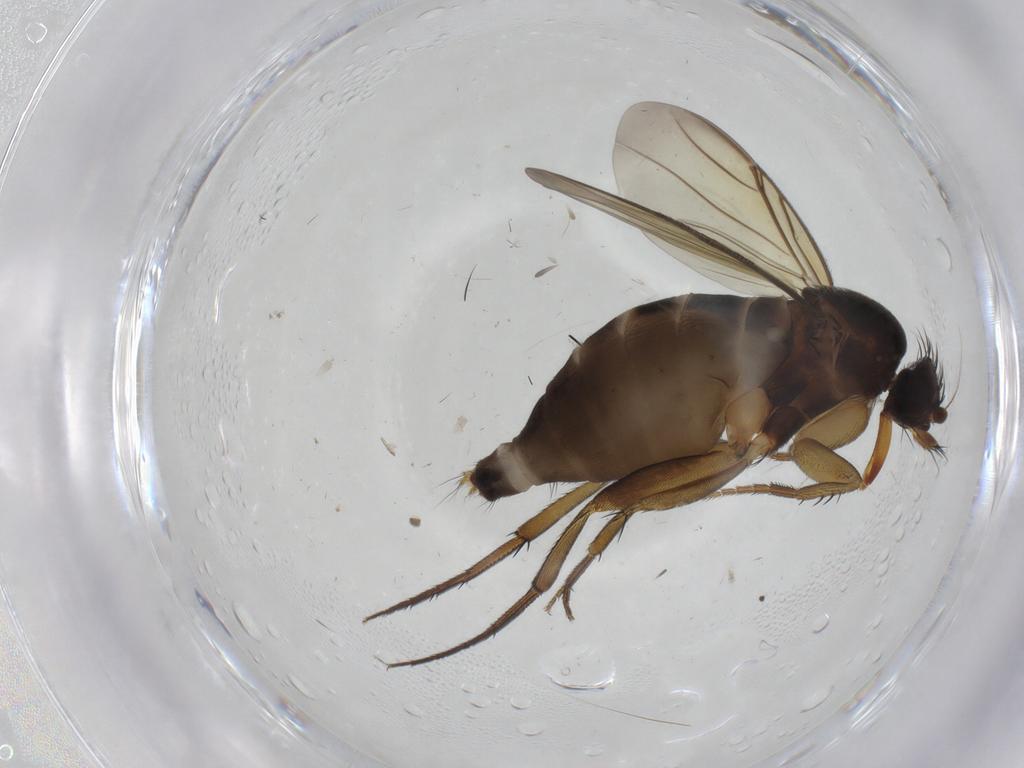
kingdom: Animalia
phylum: Arthropoda
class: Insecta
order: Diptera
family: Phoridae
